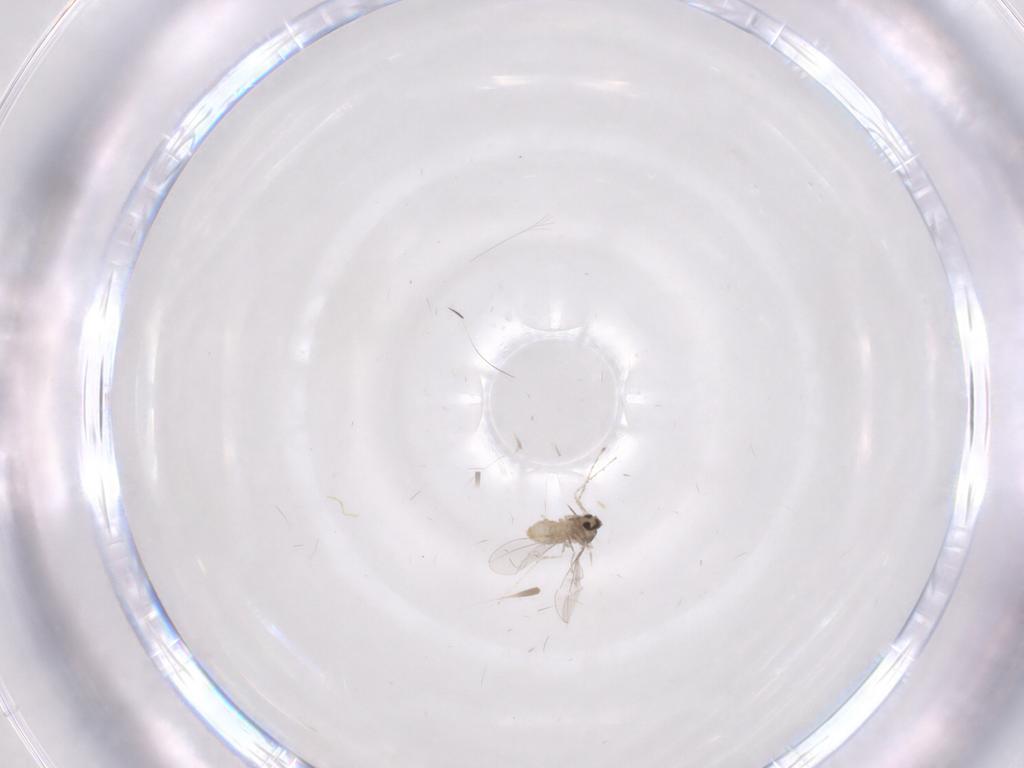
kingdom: Animalia
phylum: Arthropoda
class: Insecta
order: Diptera
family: Cecidomyiidae
